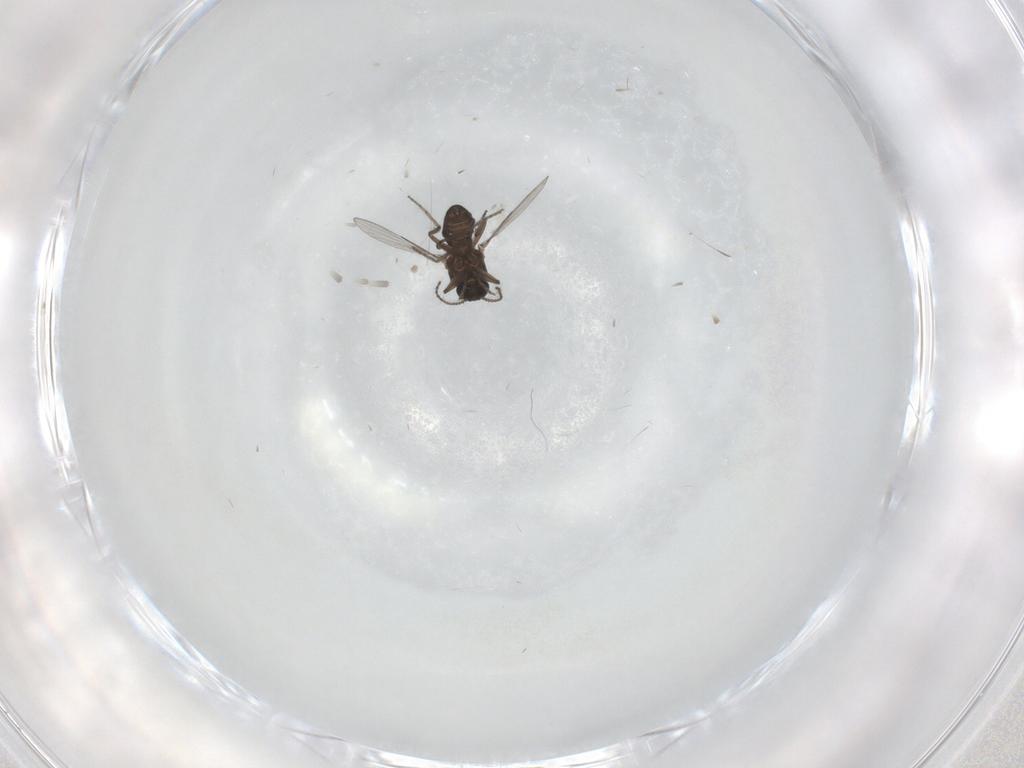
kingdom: Animalia
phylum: Arthropoda
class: Insecta
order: Diptera
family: Ceratopogonidae
